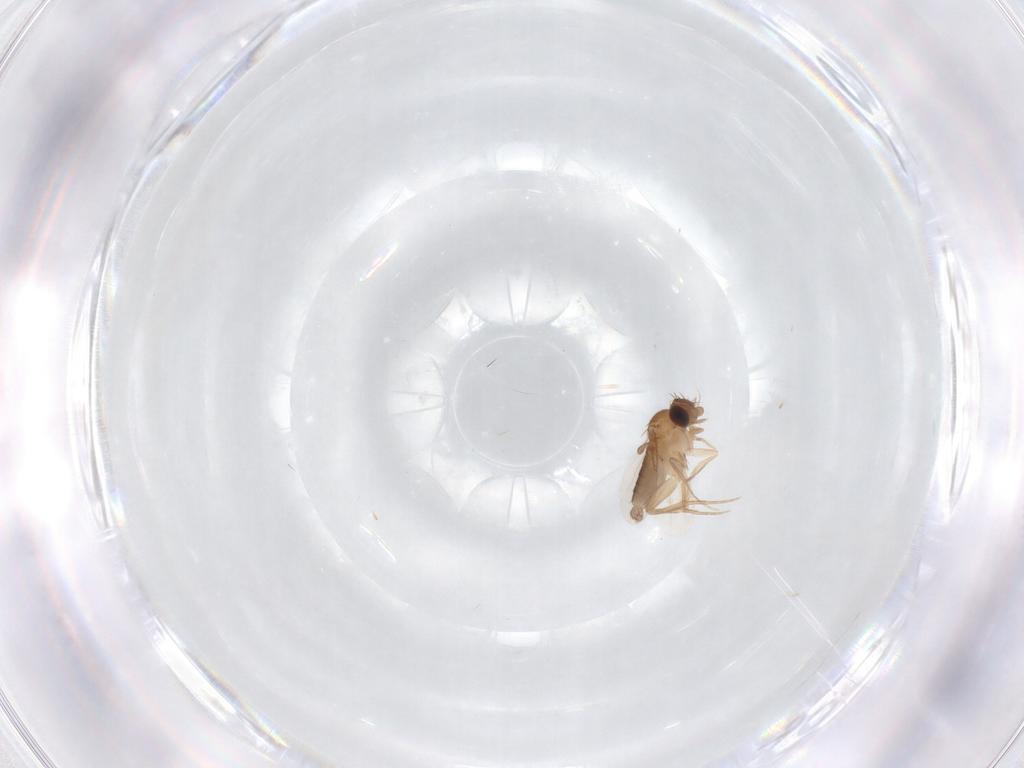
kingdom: Animalia
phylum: Arthropoda
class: Insecta
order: Diptera
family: Phoridae
